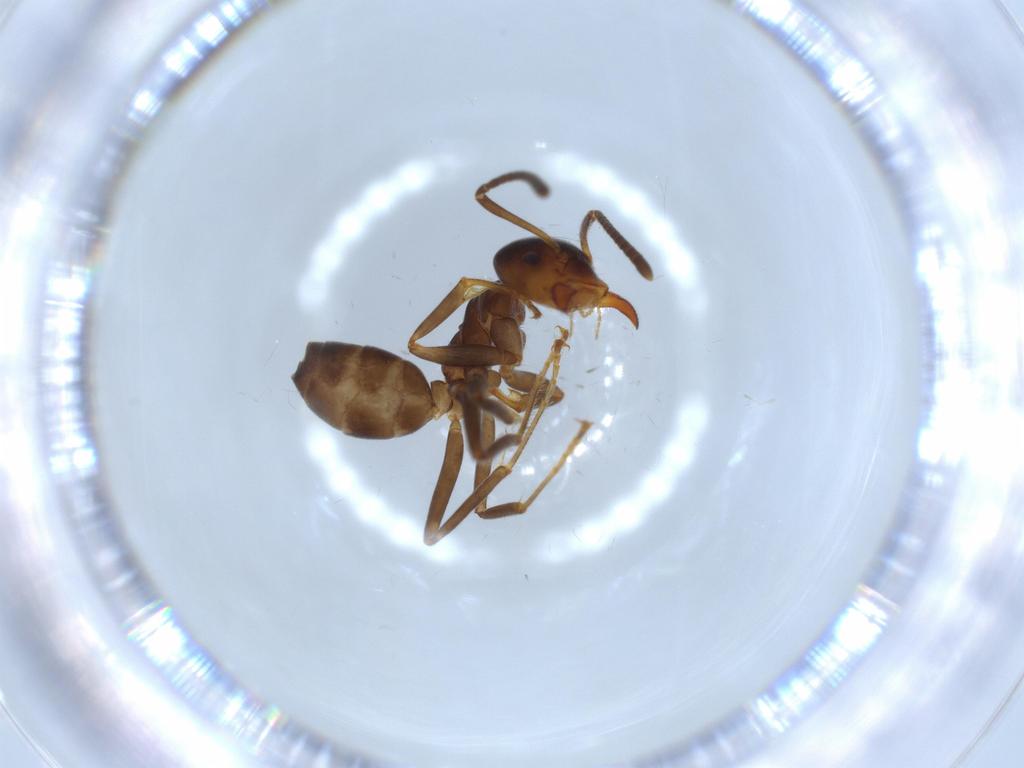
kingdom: Animalia
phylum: Arthropoda
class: Insecta
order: Hymenoptera
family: Formicidae
